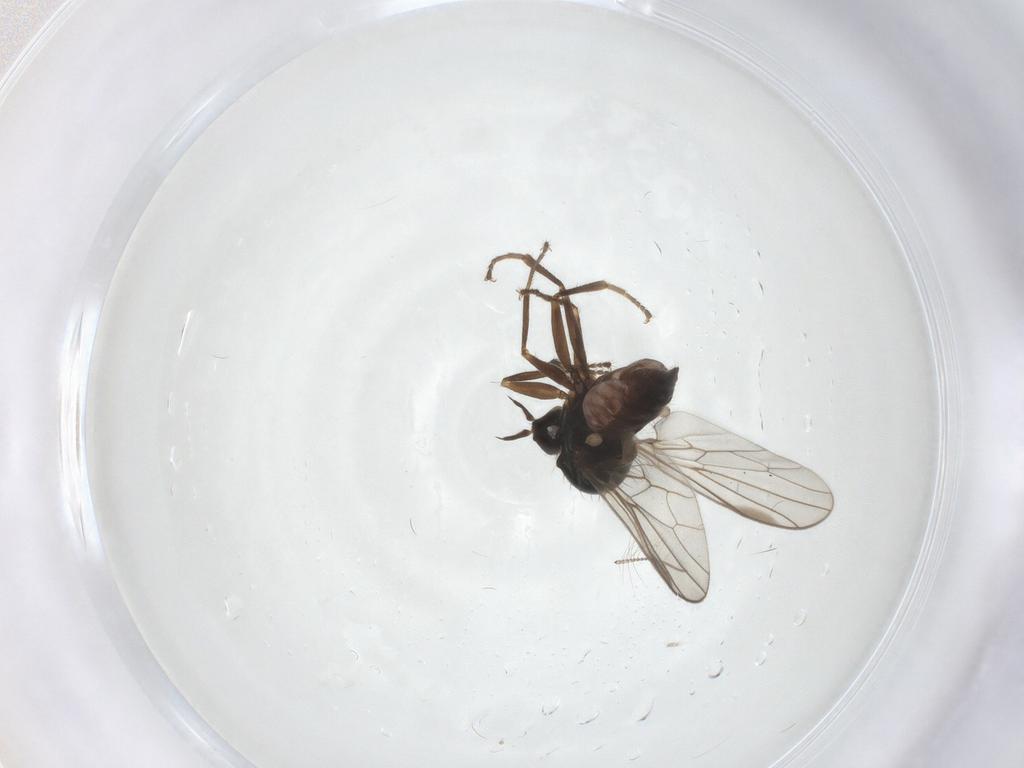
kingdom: Animalia
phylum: Arthropoda
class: Insecta
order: Diptera
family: Hybotidae
